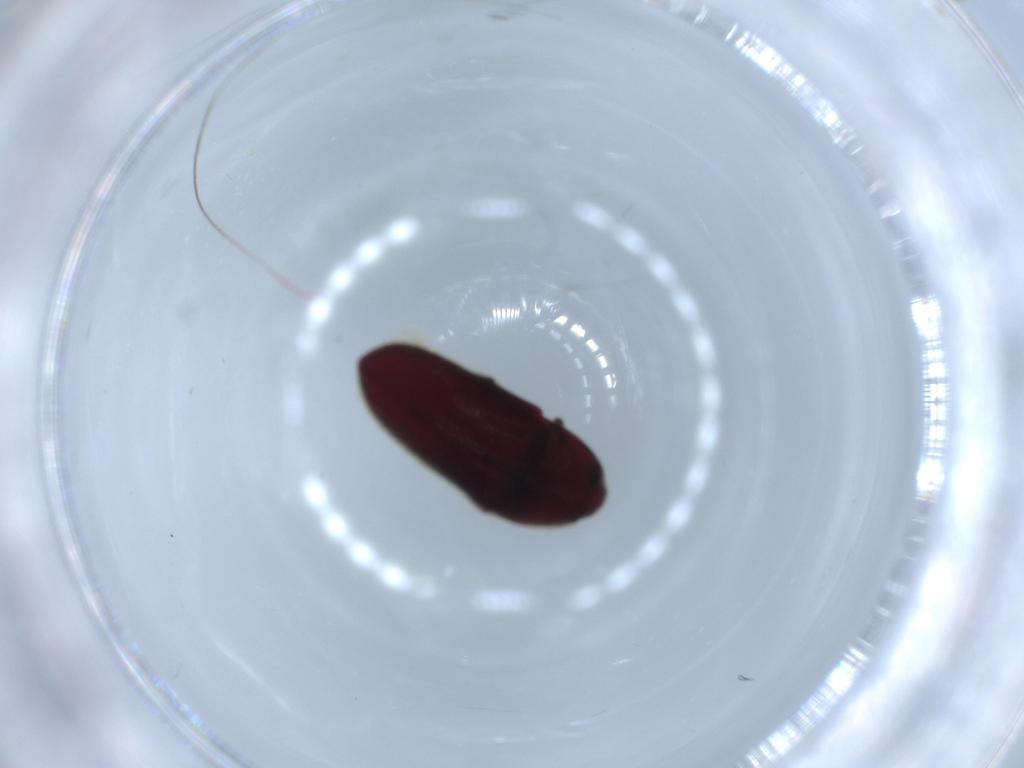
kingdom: Animalia
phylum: Arthropoda
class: Insecta
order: Coleoptera
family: Throscidae
